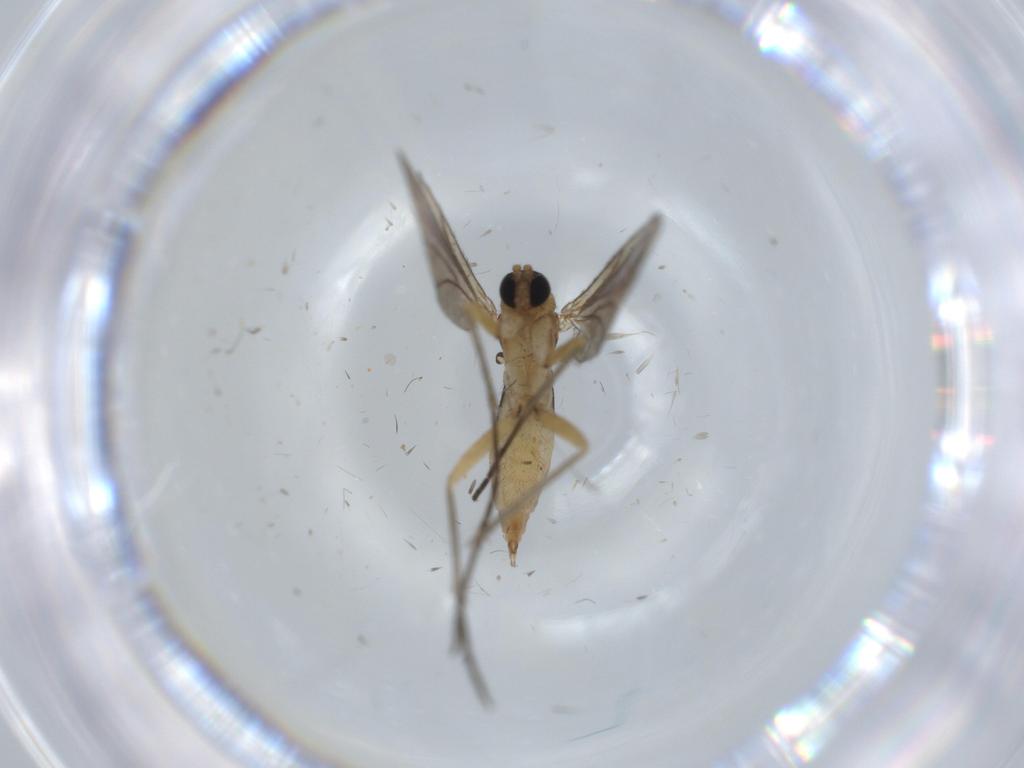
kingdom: Animalia
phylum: Arthropoda
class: Insecta
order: Diptera
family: Sciaridae
